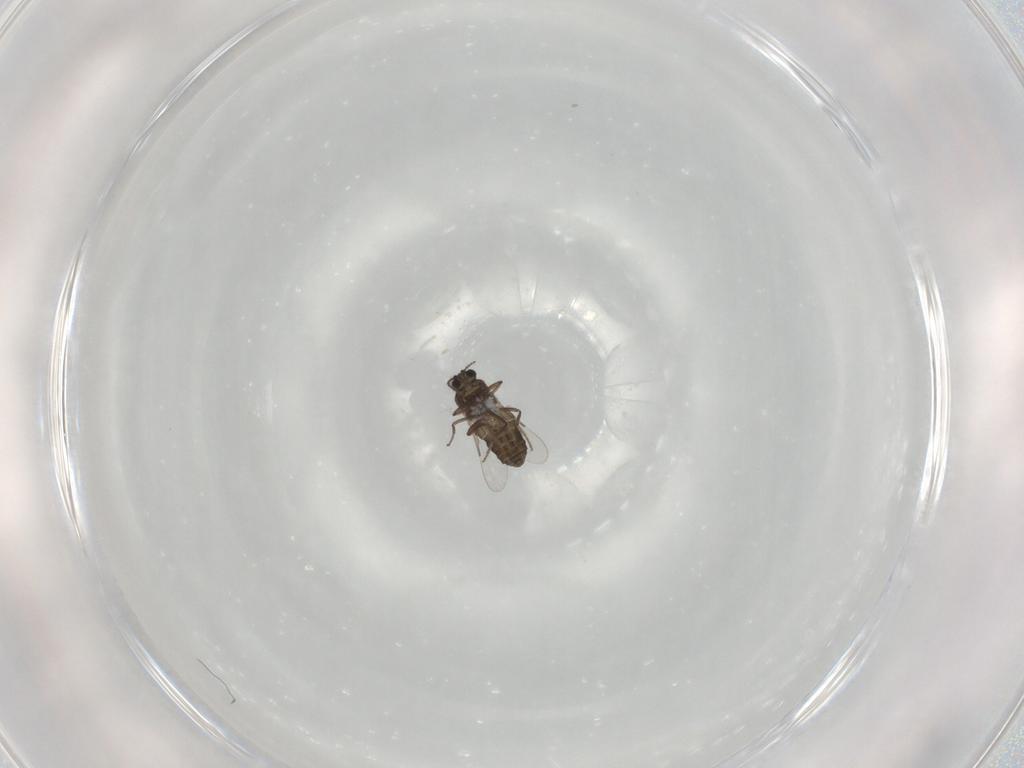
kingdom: Animalia
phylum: Arthropoda
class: Insecta
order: Diptera
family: Ceratopogonidae
